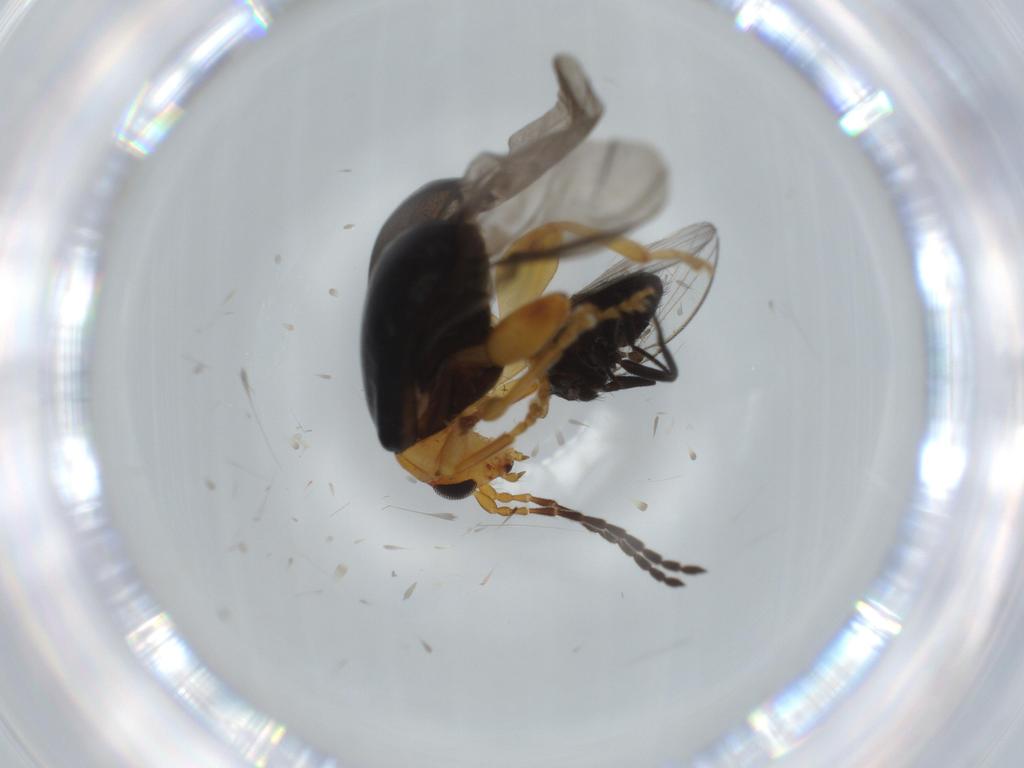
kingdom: Animalia
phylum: Arthropoda
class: Insecta
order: Coleoptera
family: Chrysomelidae
